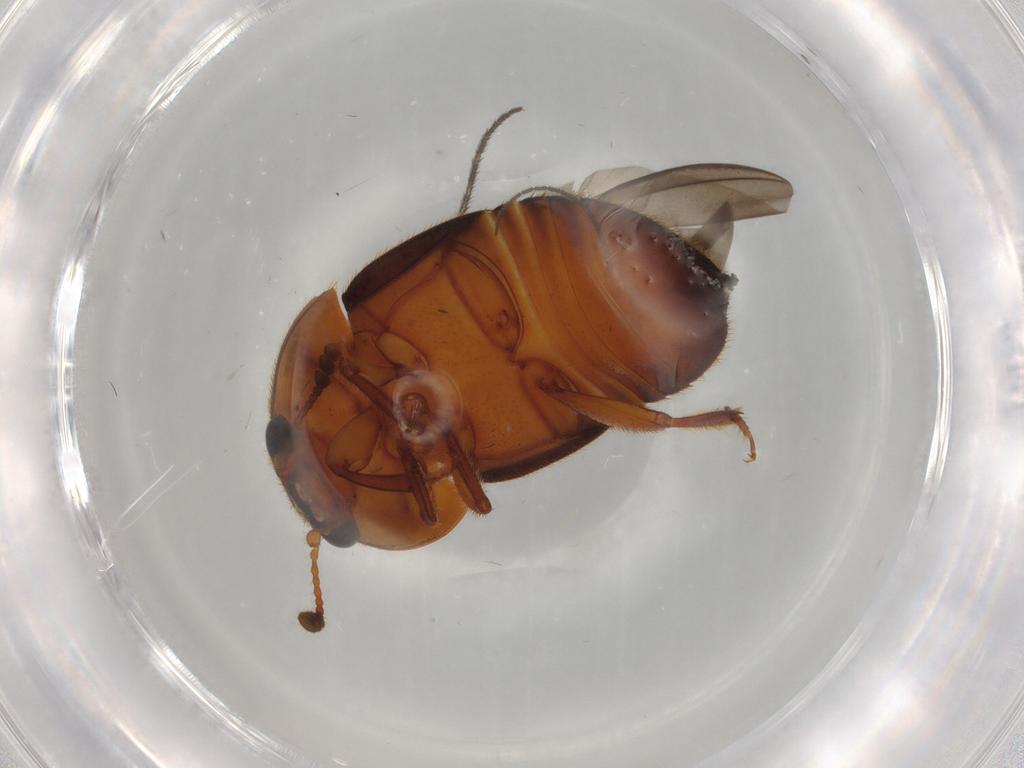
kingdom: Animalia
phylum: Arthropoda
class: Insecta
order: Coleoptera
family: Nitidulidae
